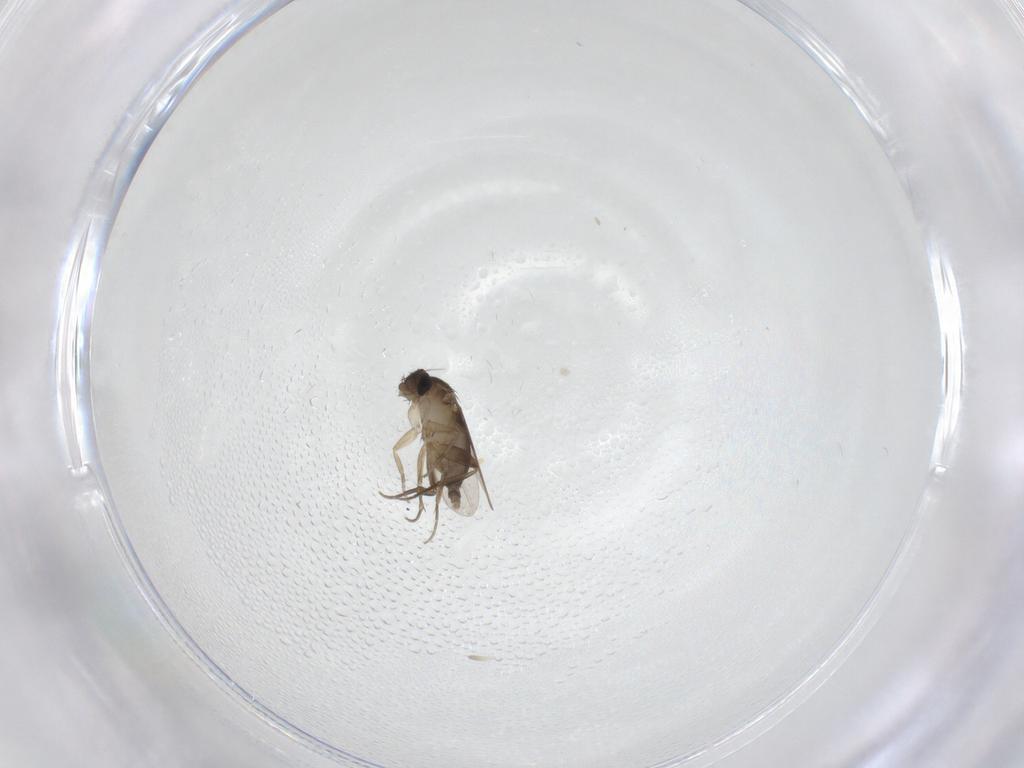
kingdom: Animalia
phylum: Arthropoda
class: Insecta
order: Diptera
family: Phoridae
